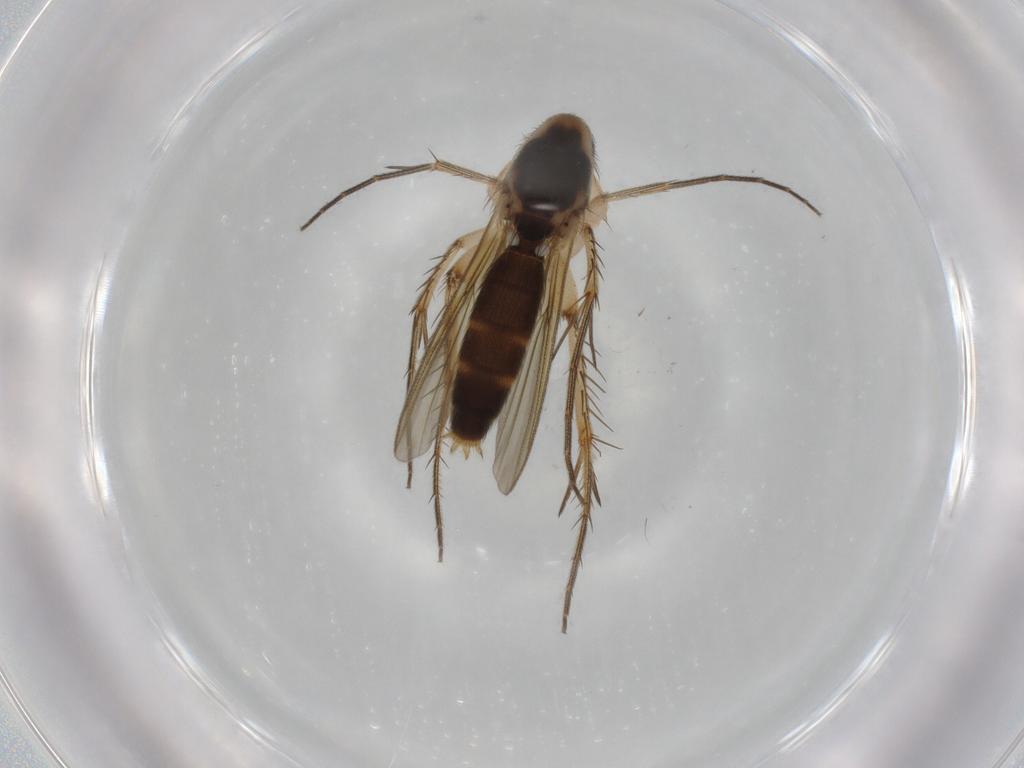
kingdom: Animalia
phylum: Arthropoda
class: Insecta
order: Diptera
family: Mycetophilidae
